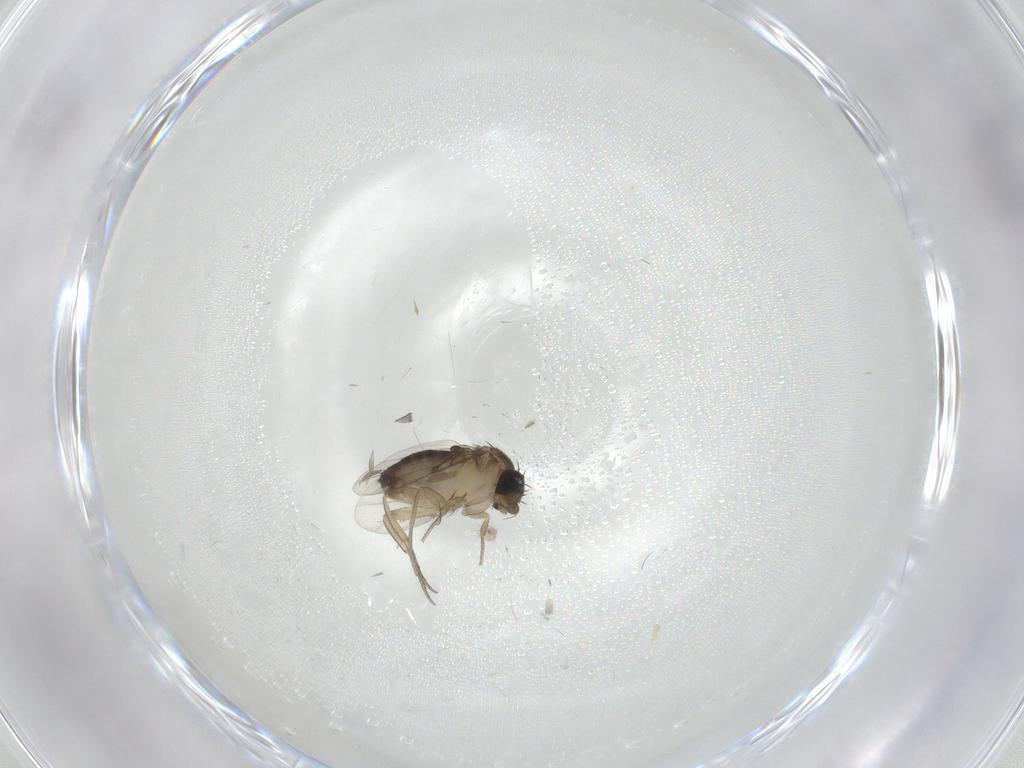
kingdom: Animalia
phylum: Arthropoda
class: Insecta
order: Diptera
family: Phoridae
